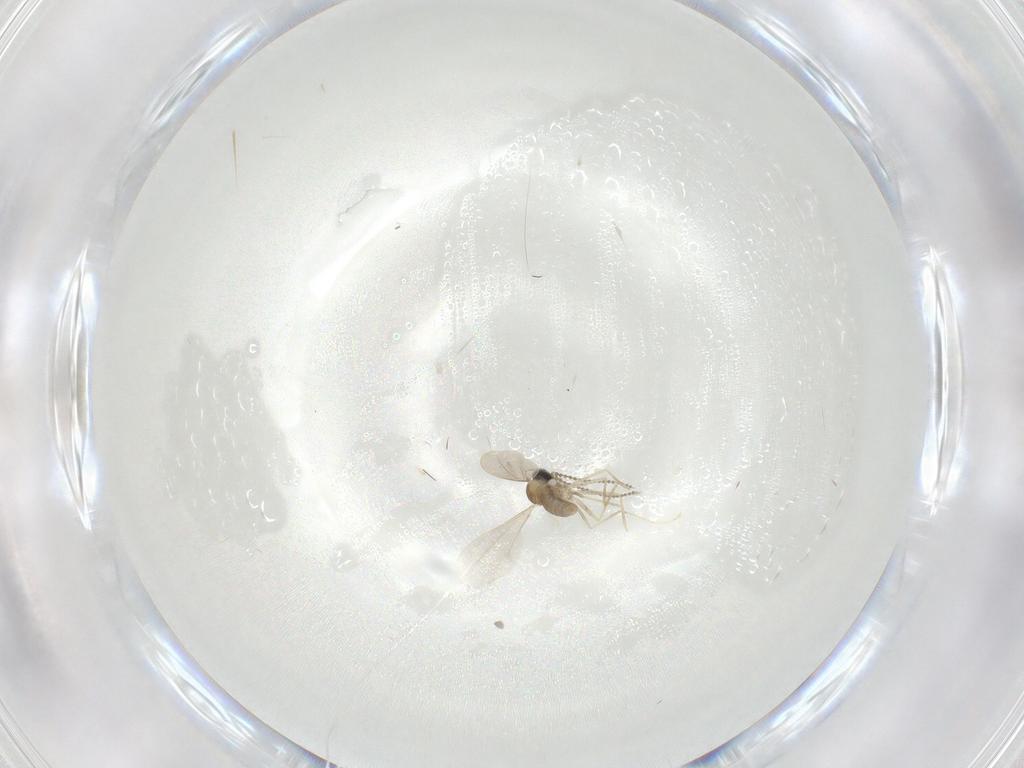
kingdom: Animalia
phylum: Arthropoda
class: Insecta
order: Diptera
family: Cecidomyiidae
